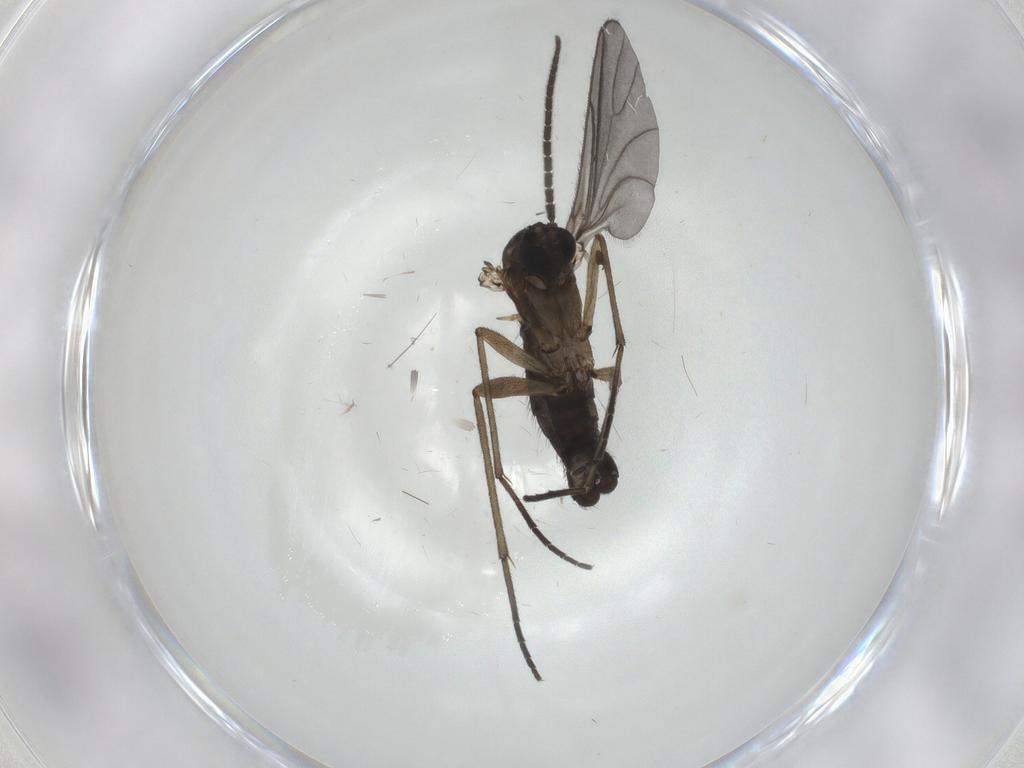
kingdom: Animalia
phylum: Arthropoda
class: Insecta
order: Diptera
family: Sciaridae
